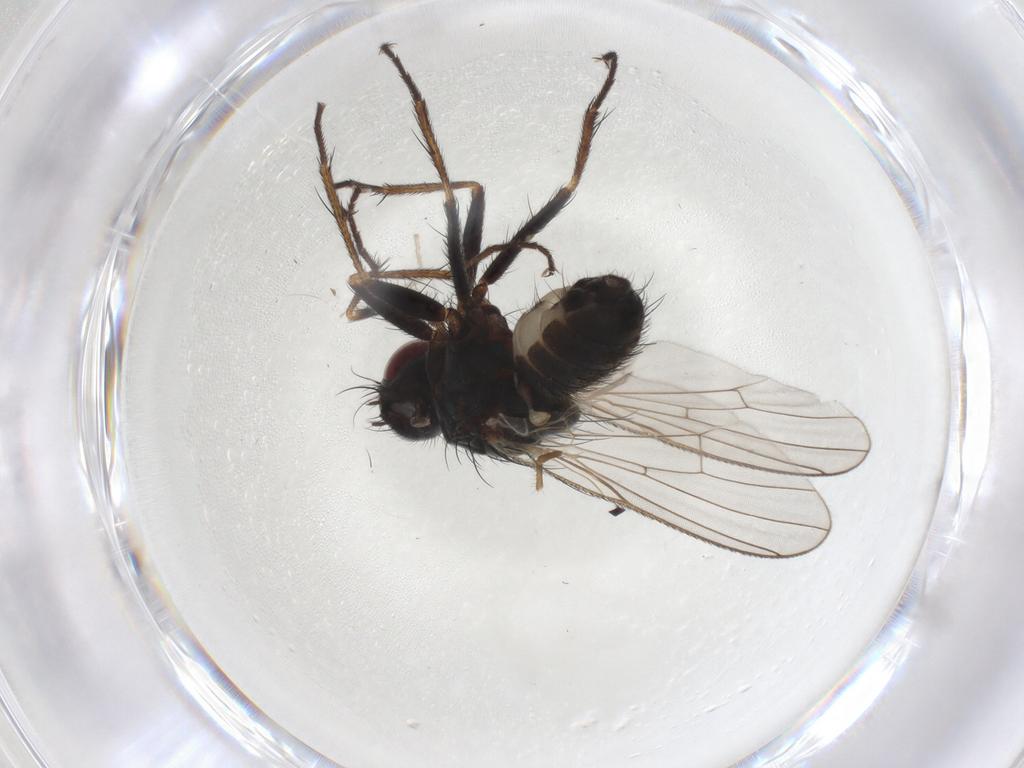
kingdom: Animalia
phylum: Arthropoda
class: Insecta
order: Diptera
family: Muscidae
